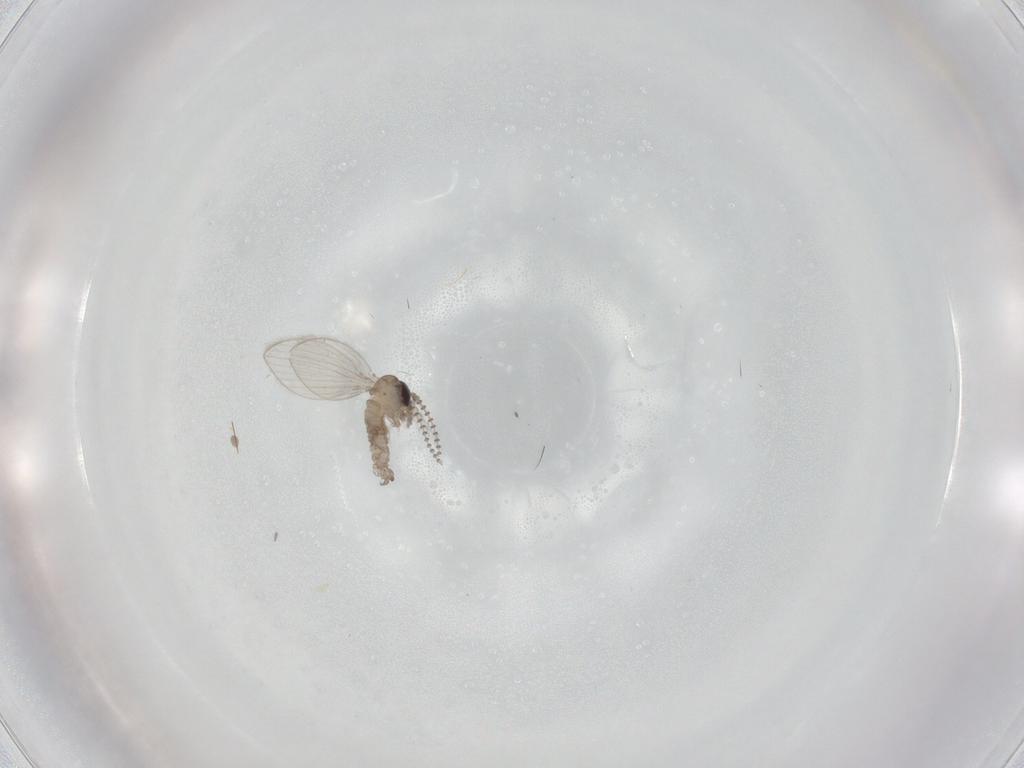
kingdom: Animalia
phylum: Arthropoda
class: Insecta
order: Diptera
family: Psychodidae
